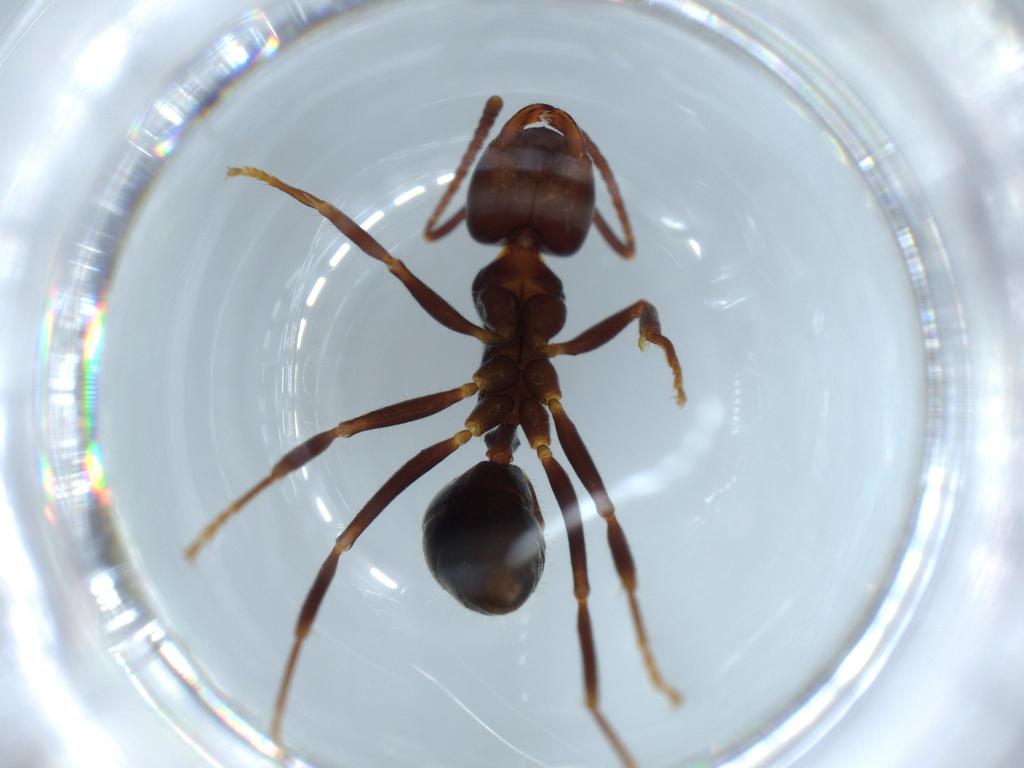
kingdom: Animalia
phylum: Arthropoda
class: Insecta
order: Hymenoptera
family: Formicidae
